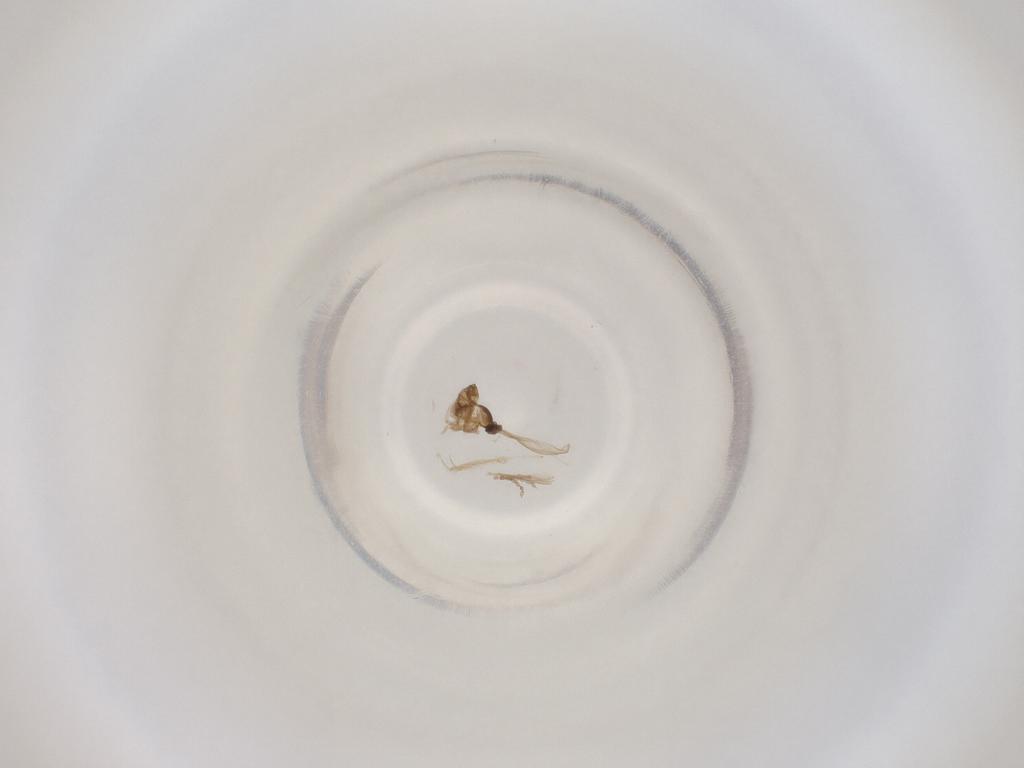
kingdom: Animalia
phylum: Arthropoda
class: Insecta
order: Diptera
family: Cecidomyiidae
